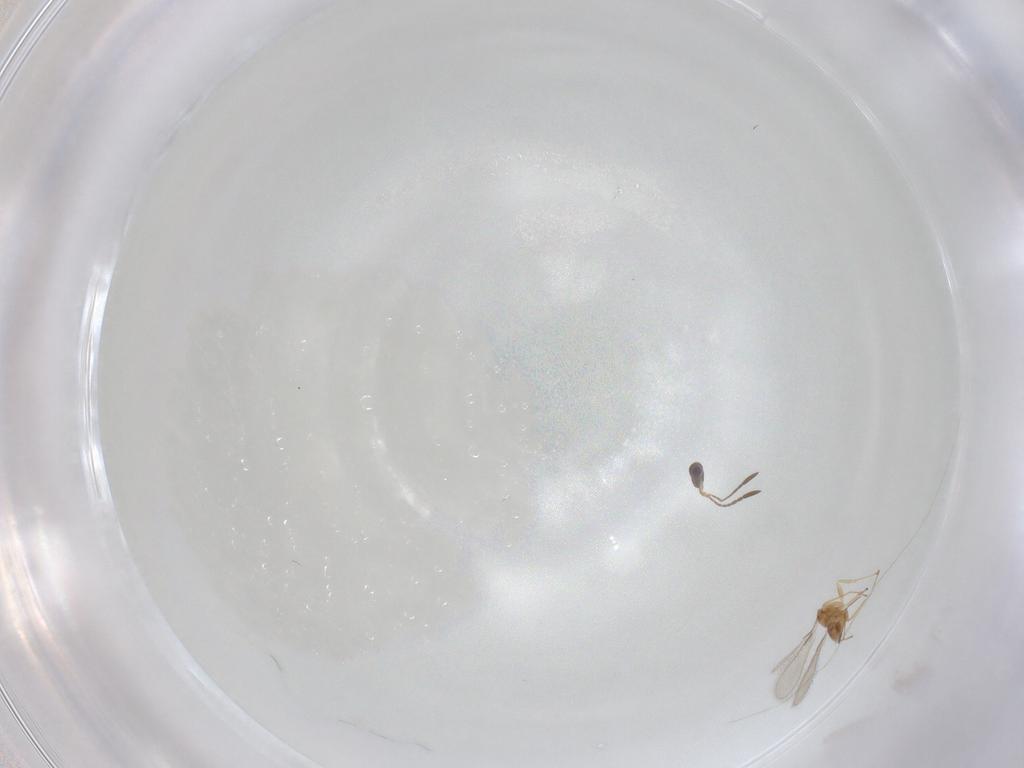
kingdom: Animalia
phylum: Arthropoda
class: Insecta
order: Hymenoptera
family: Mymaridae
